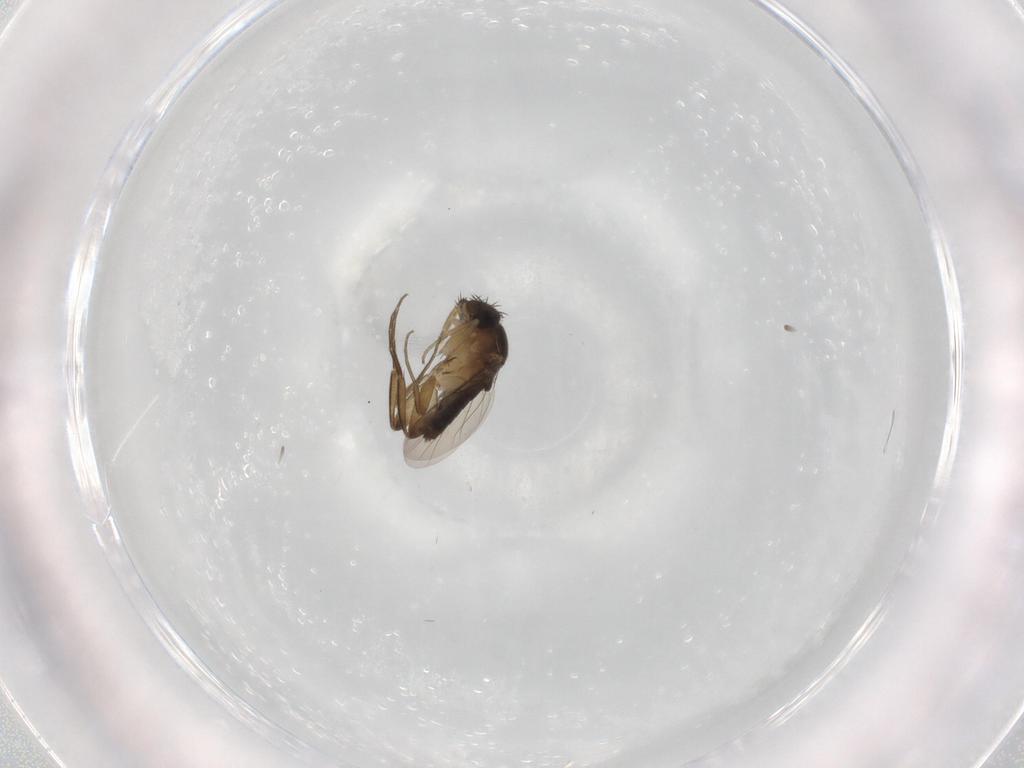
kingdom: Animalia
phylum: Arthropoda
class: Insecta
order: Diptera
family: Phoridae
